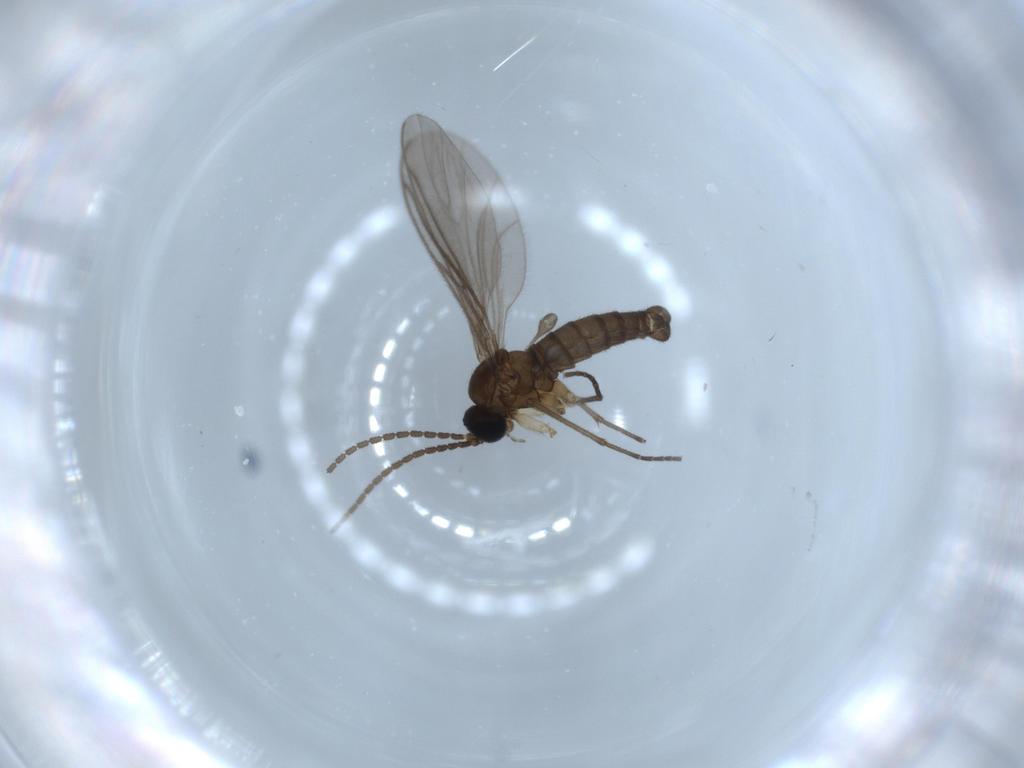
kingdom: Animalia
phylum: Arthropoda
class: Insecta
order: Diptera
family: Sciaridae
